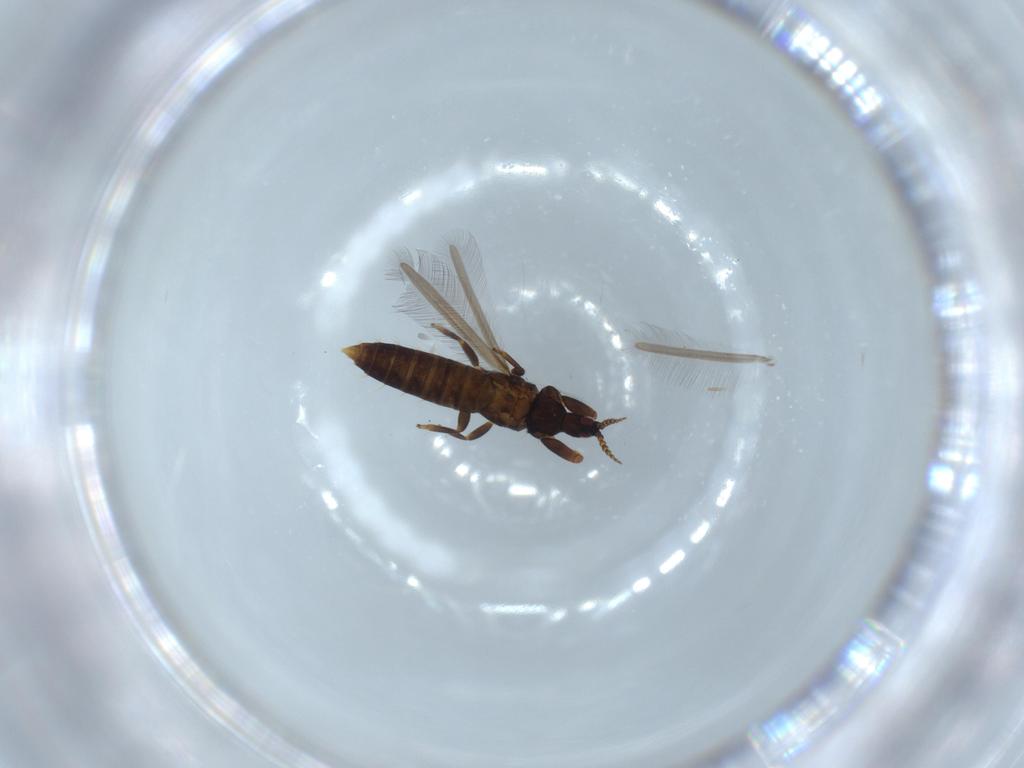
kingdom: Animalia
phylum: Arthropoda
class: Insecta
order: Thysanoptera
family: Phlaeothripidae
